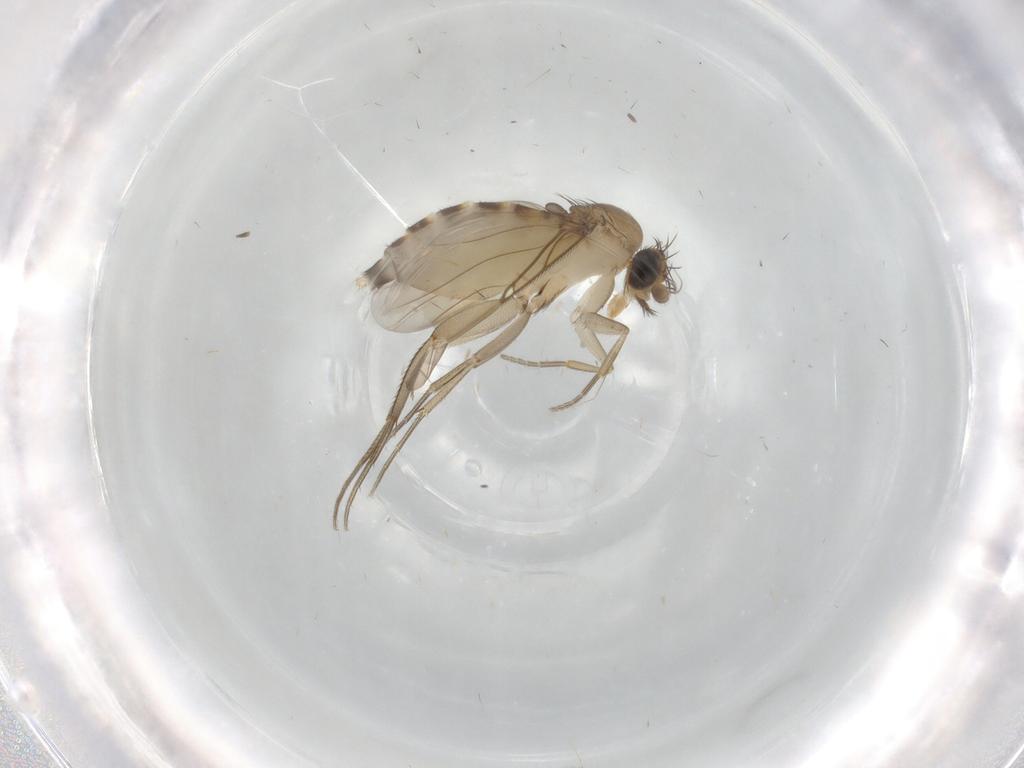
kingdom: Animalia
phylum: Arthropoda
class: Insecta
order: Diptera
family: Phoridae
